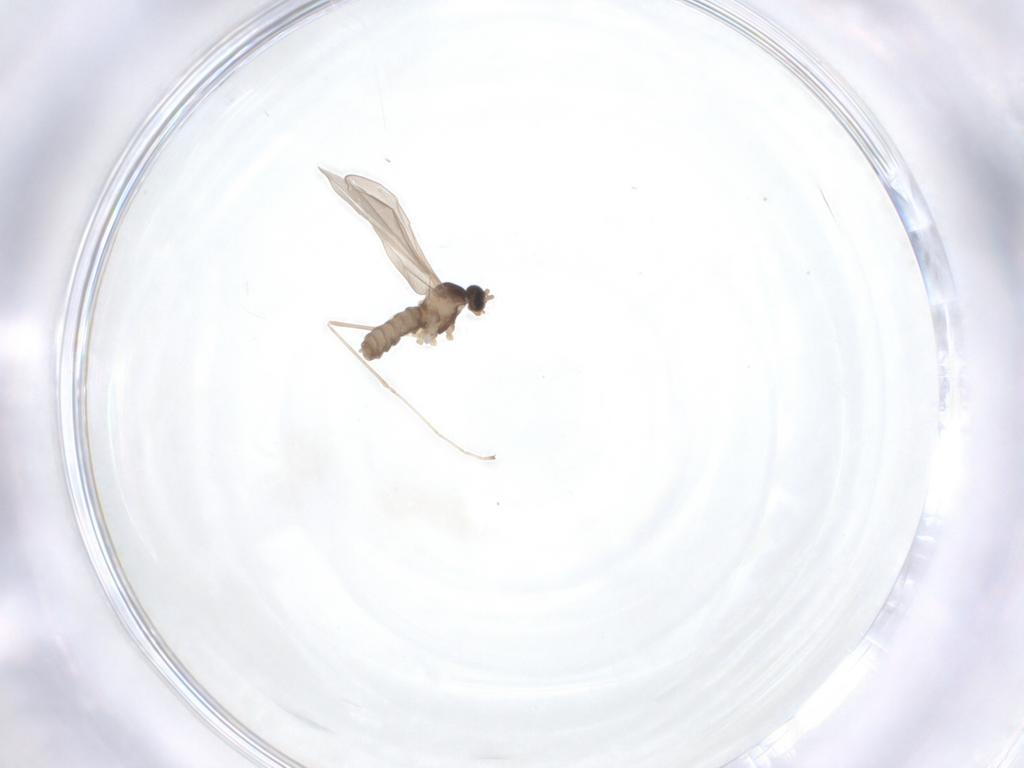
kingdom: Animalia
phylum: Arthropoda
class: Insecta
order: Diptera
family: Cecidomyiidae
